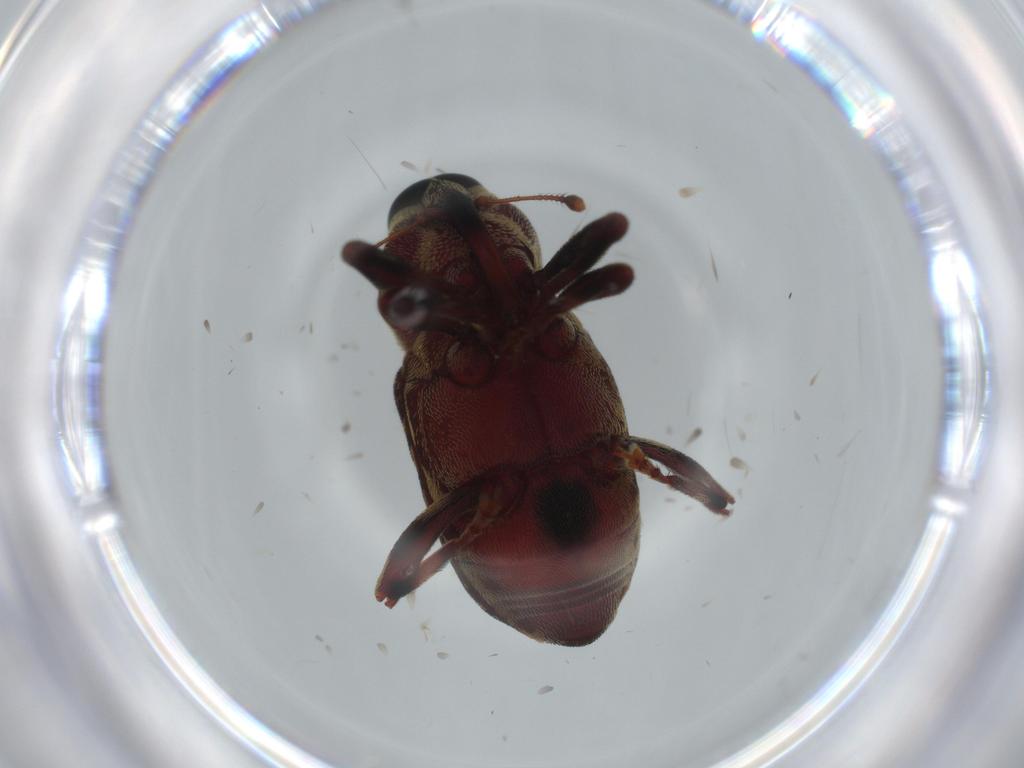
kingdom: Animalia
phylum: Arthropoda
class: Insecta
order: Coleoptera
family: Curculionidae
